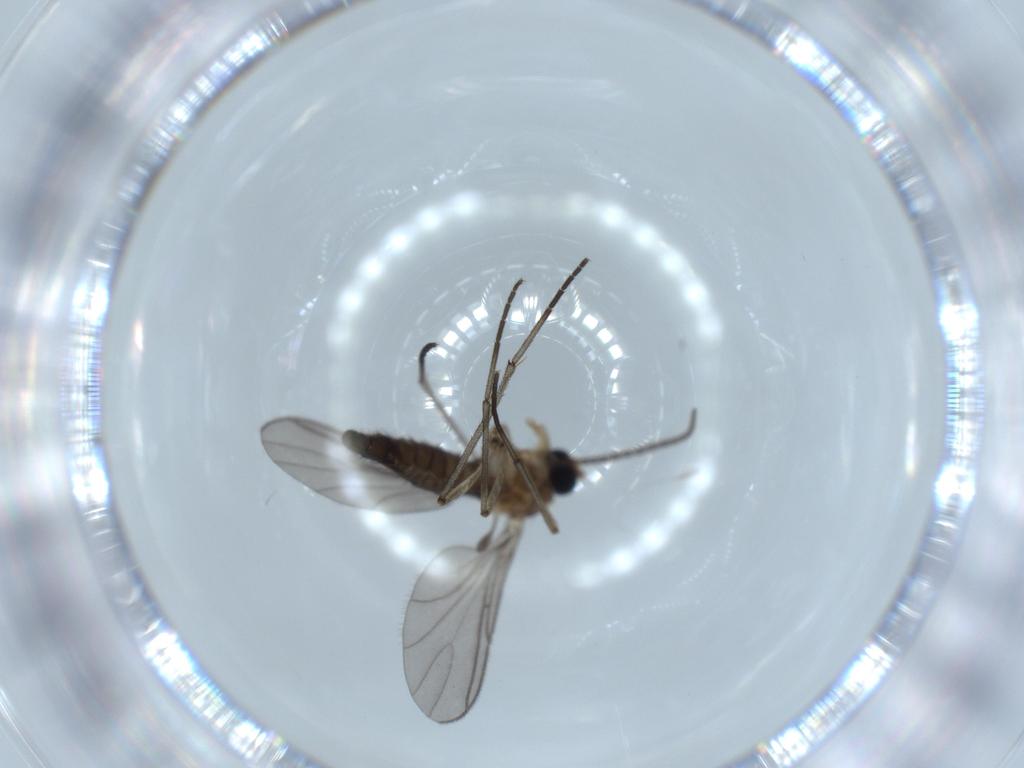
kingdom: Animalia
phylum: Arthropoda
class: Insecta
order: Diptera
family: Sciaridae
